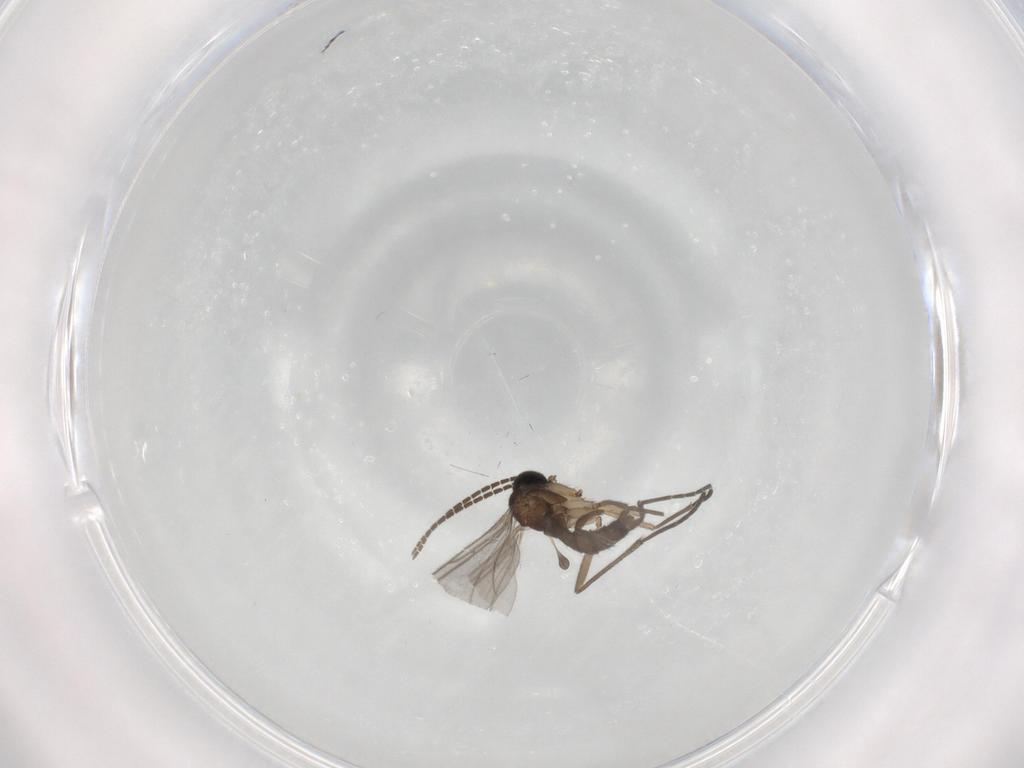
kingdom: Animalia
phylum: Arthropoda
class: Insecta
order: Diptera
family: Sciaridae
